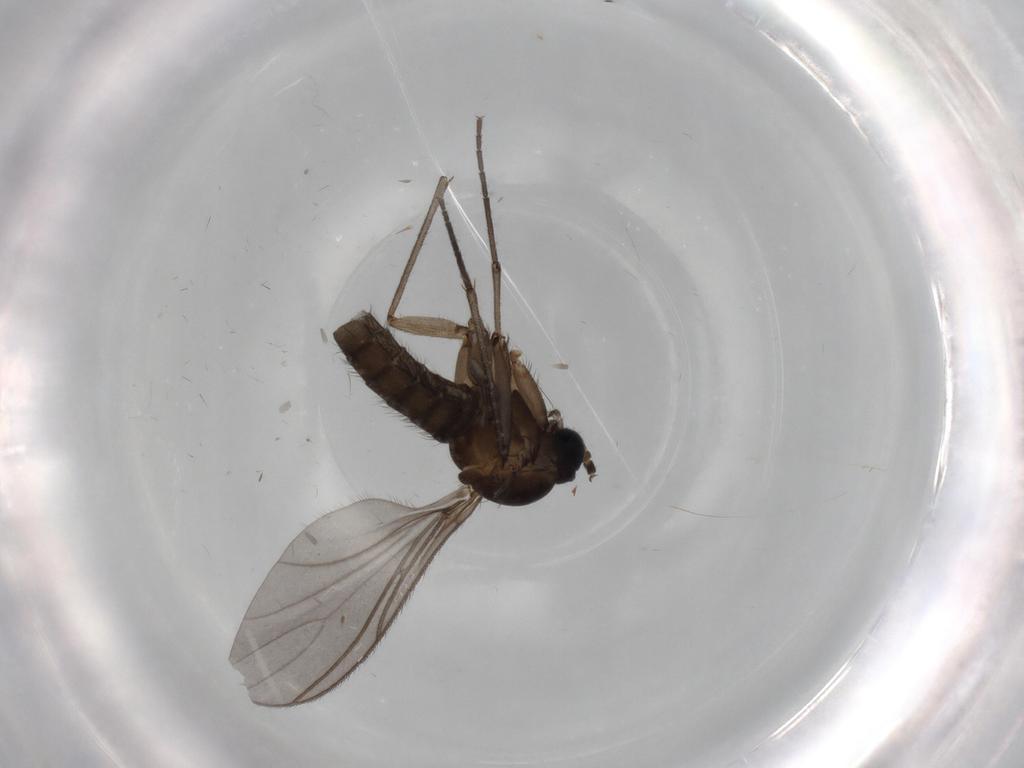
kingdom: Animalia
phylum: Arthropoda
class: Insecta
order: Diptera
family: Sciaridae
